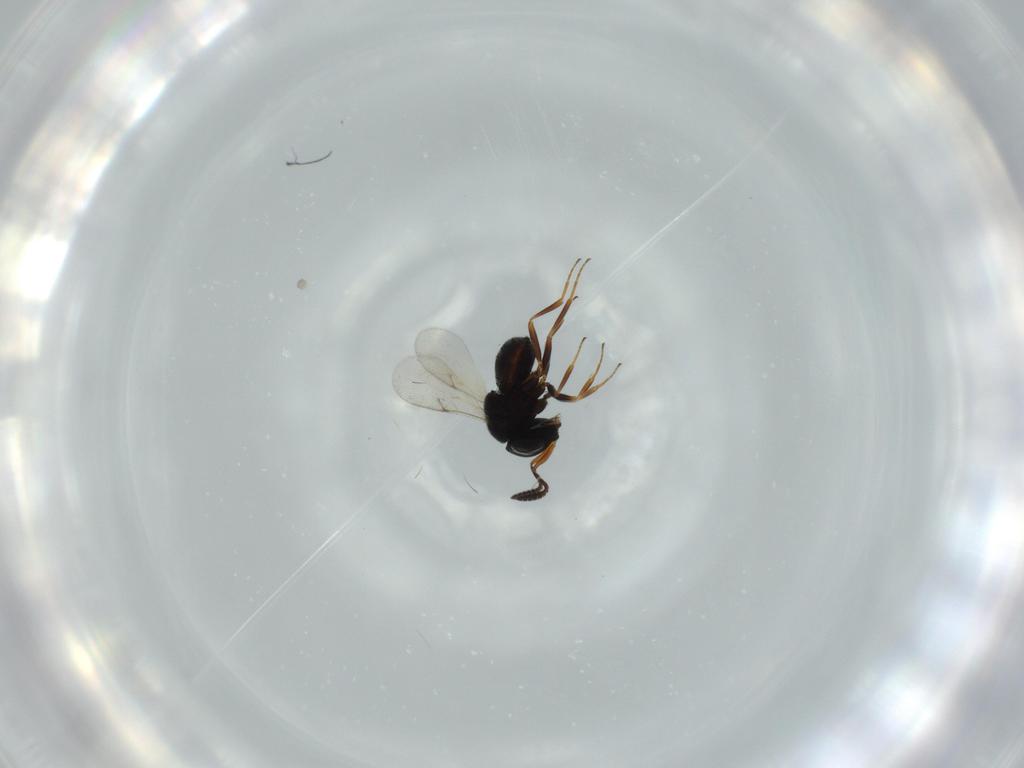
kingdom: Animalia
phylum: Arthropoda
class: Insecta
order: Hymenoptera
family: Scelionidae
